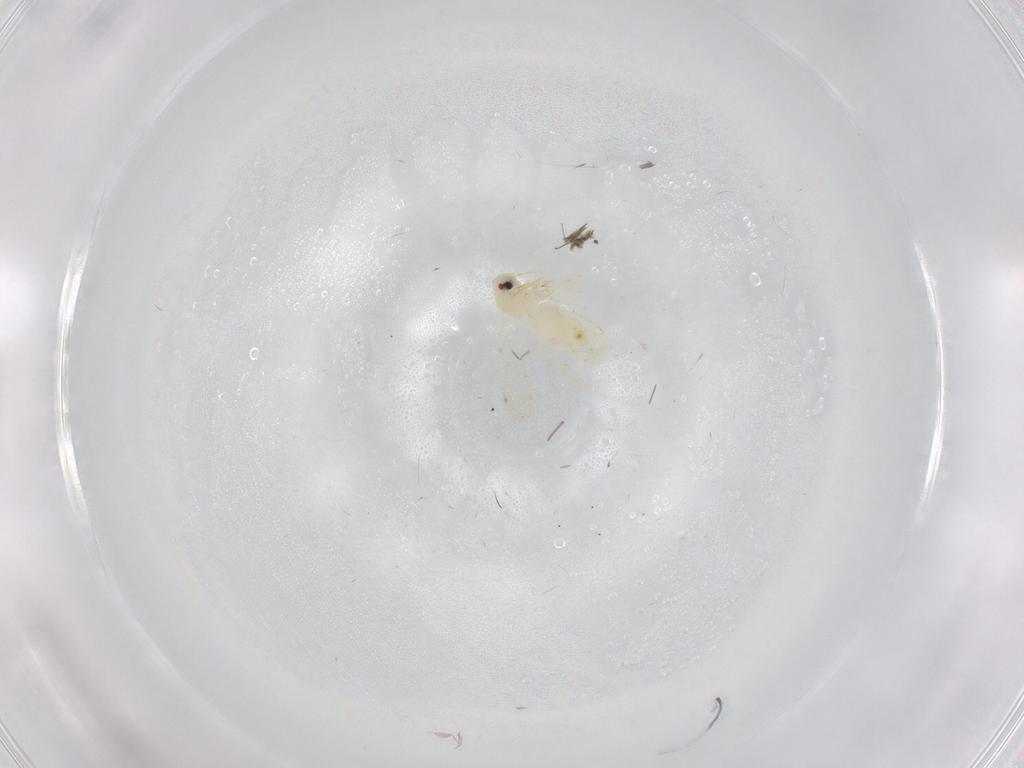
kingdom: Animalia
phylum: Arthropoda
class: Insecta
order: Hemiptera
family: Aleyrodidae
